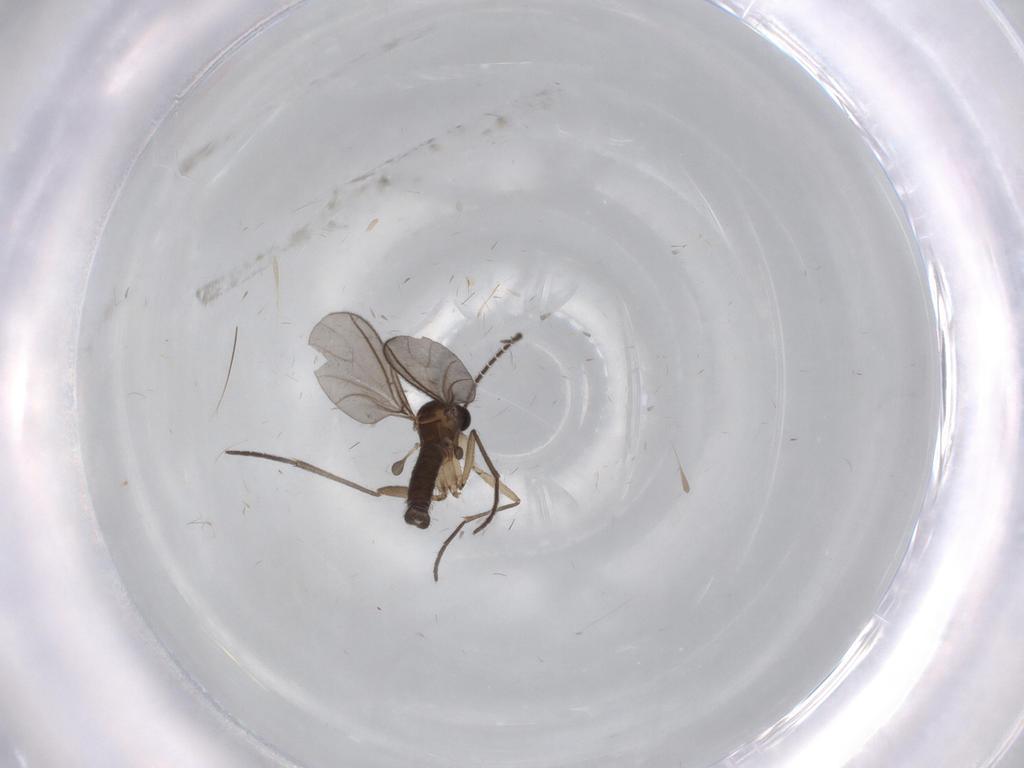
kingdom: Animalia
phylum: Arthropoda
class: Insecta
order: Diptera
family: Sciaridae
